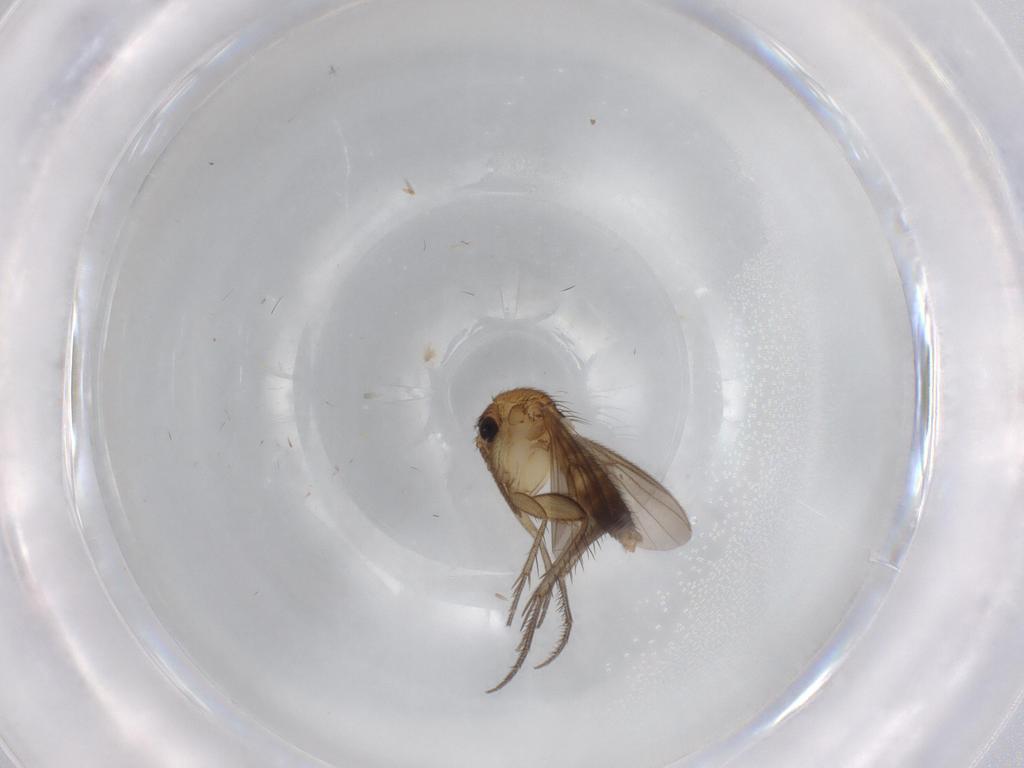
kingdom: Animalia
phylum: Arthropoda
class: Insecta
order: Diptera
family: Mycetophilidae
